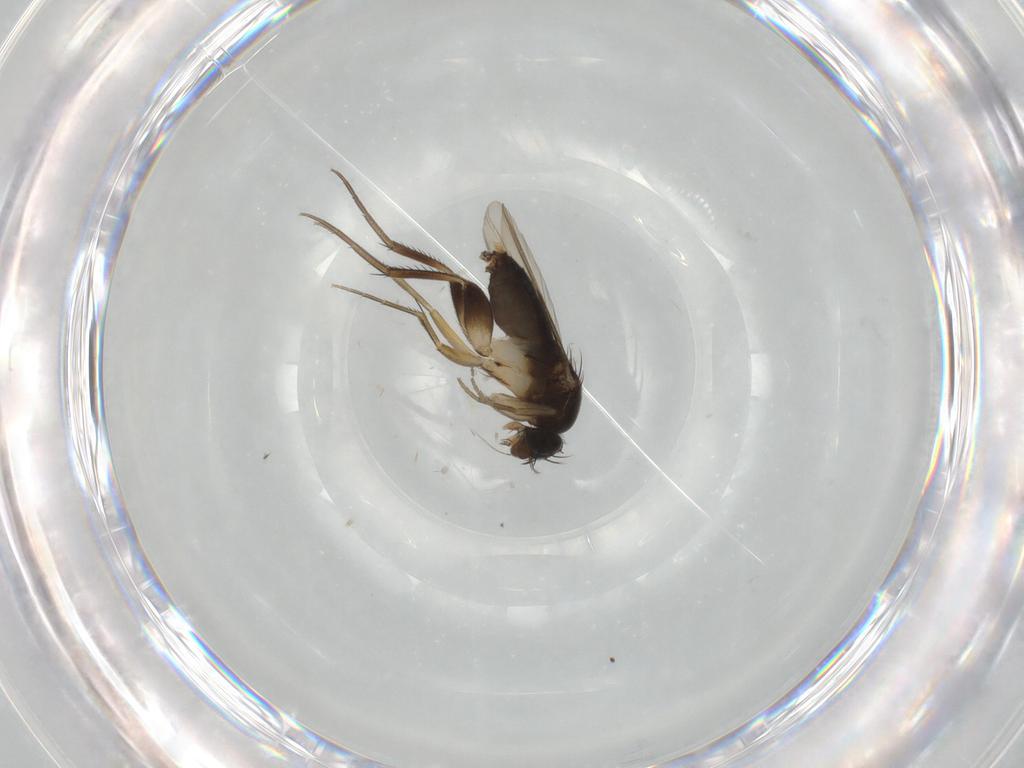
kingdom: Animalia
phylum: Arthropoda
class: Insecta
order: Diptera
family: Phoridae
